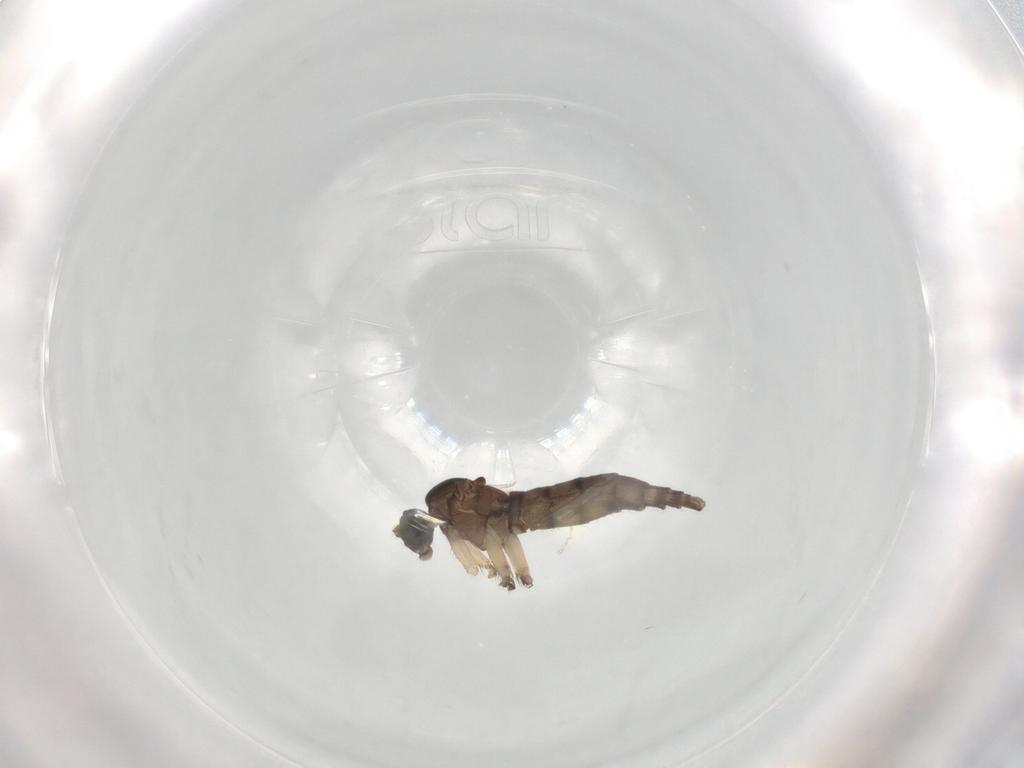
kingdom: Animalia
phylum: Arthropoda
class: Insecta
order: Diptera
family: Sciaridae
